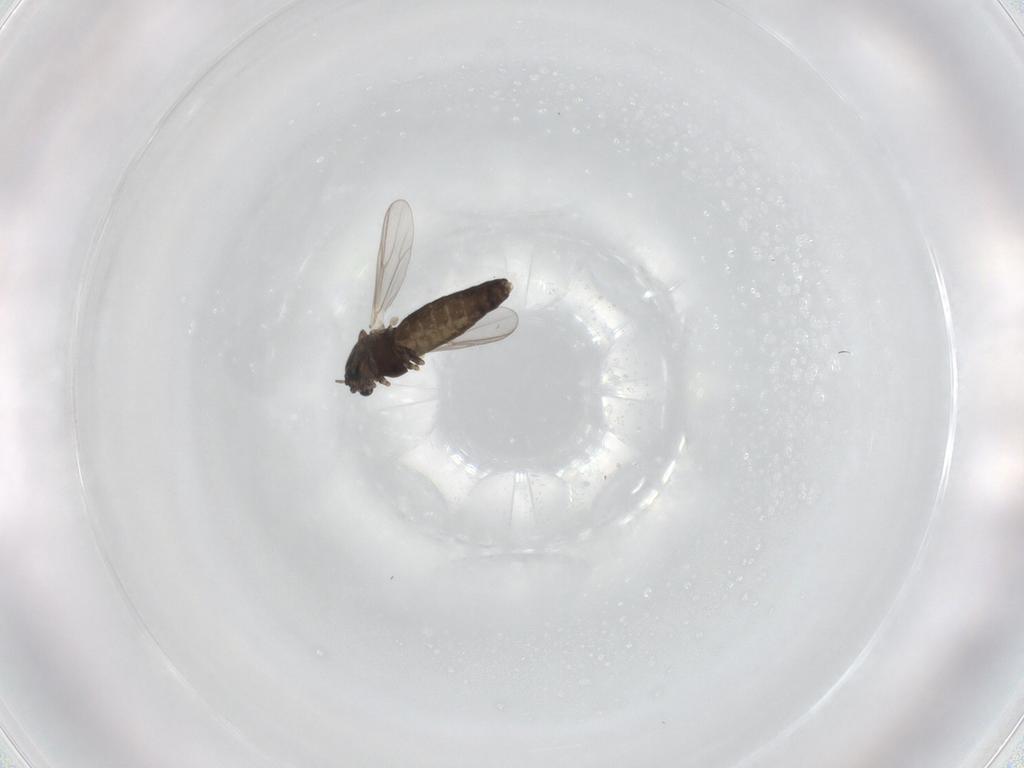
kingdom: Animalia
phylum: Arthropoda
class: Insecta
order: Diptera
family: Chironomidae
